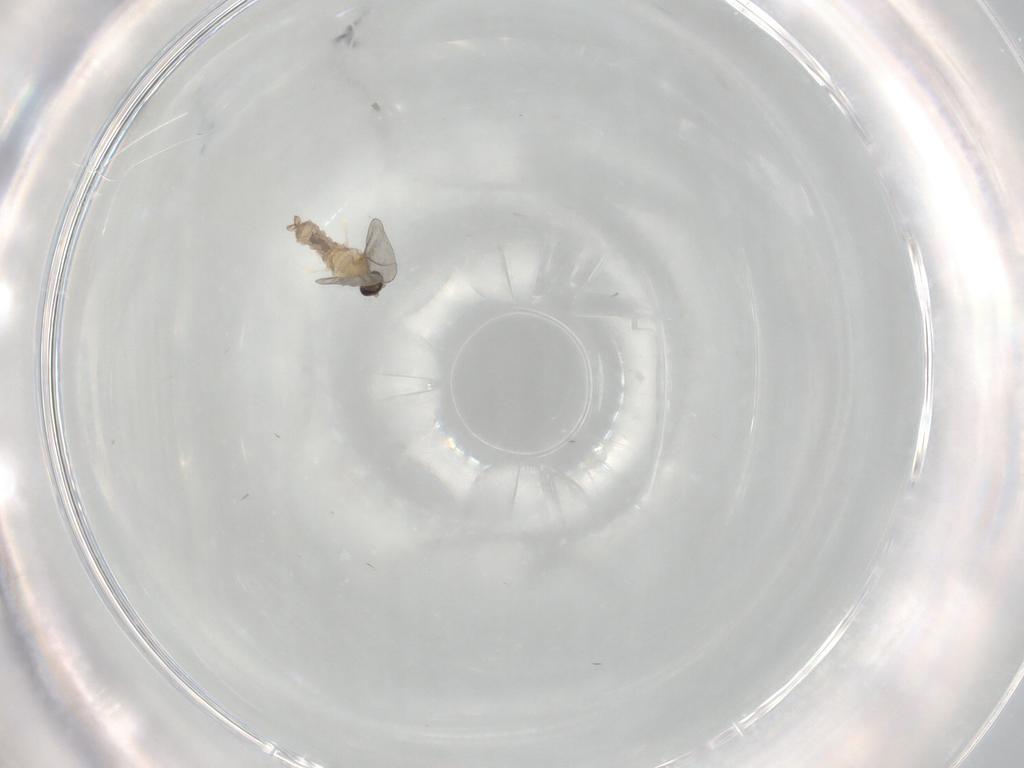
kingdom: Animalia
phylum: Arthropoda
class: Insecta
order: Diptera
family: Cecidomyiidae
